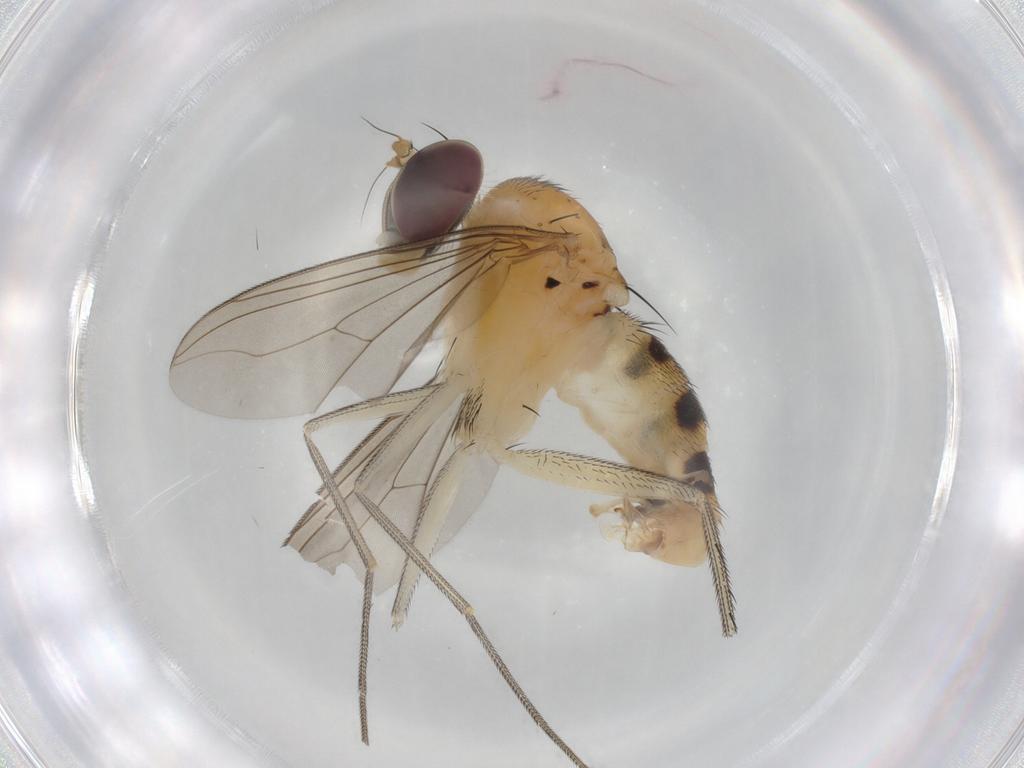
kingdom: Animalia
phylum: Arthropoda
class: Insecta
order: Diptera
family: Dolichopodidae
